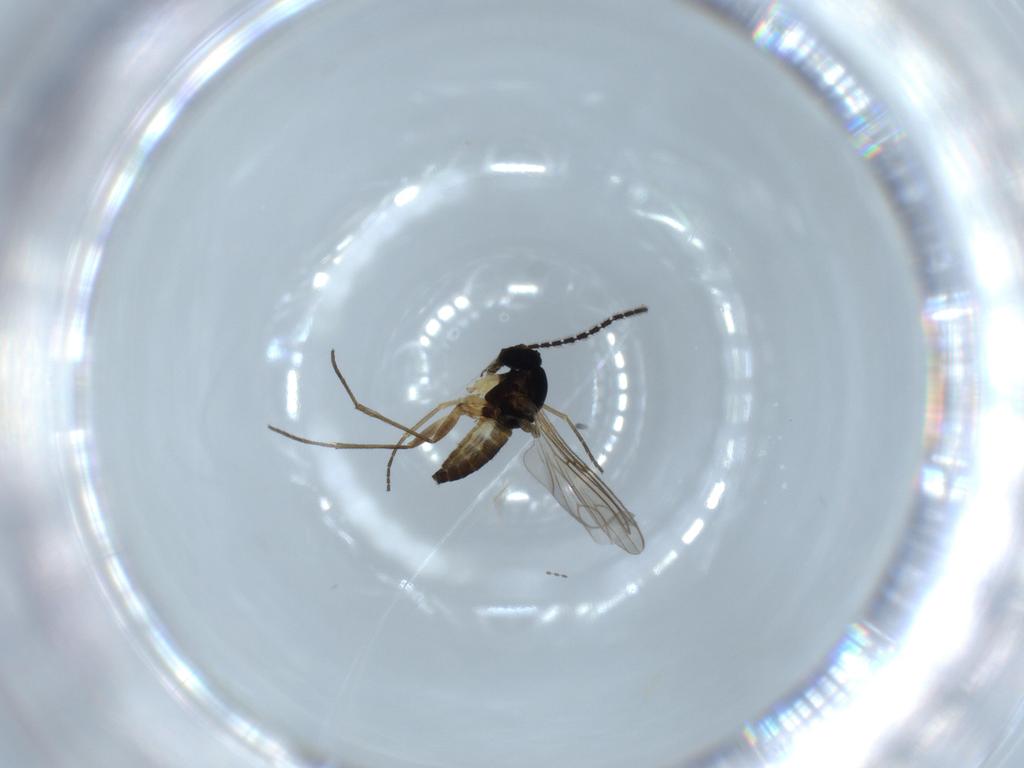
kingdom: Animalia
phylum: Arthropoda
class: Insecta
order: Diptera
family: Sciaridae
